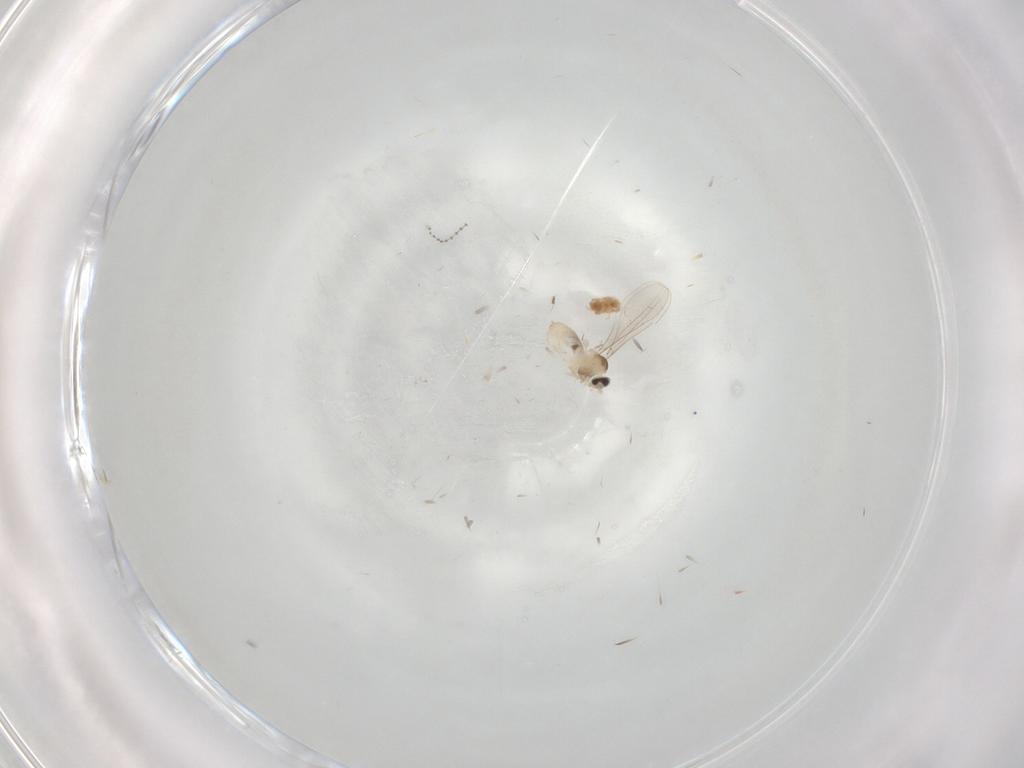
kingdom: Animalia
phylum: Arthropoda
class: Insecta
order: Diptera
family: Cecidomyiidae
